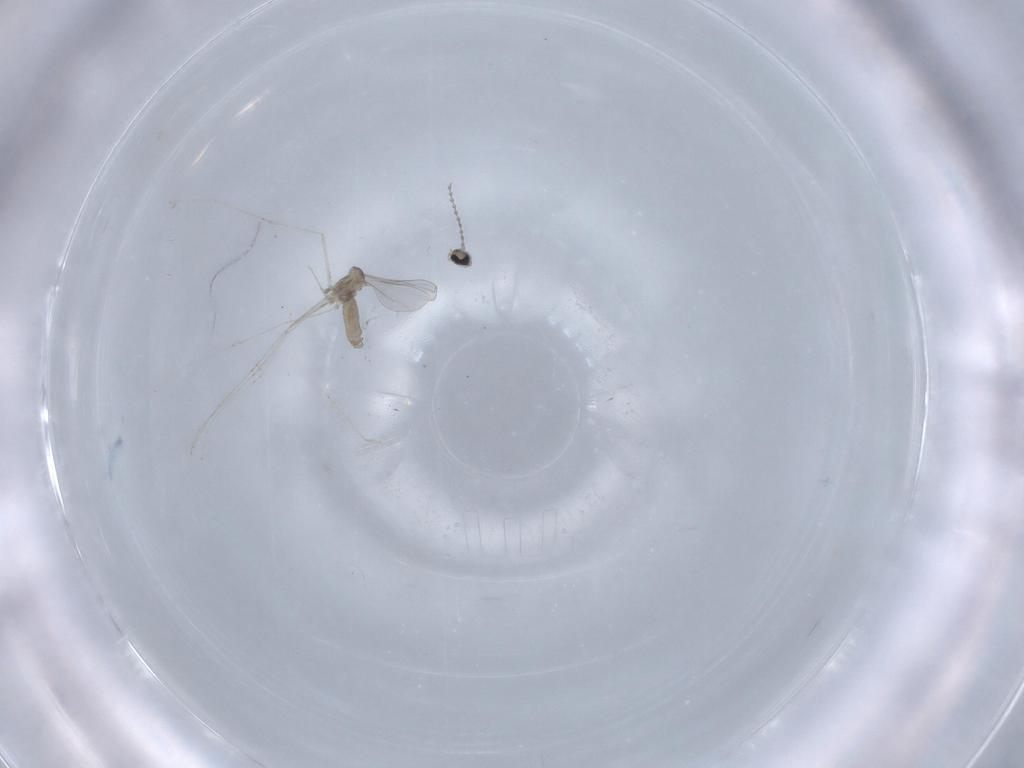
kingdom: Animalia
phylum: Arthropoda
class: Insecta
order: Diptera
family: Cecidomyiidae
